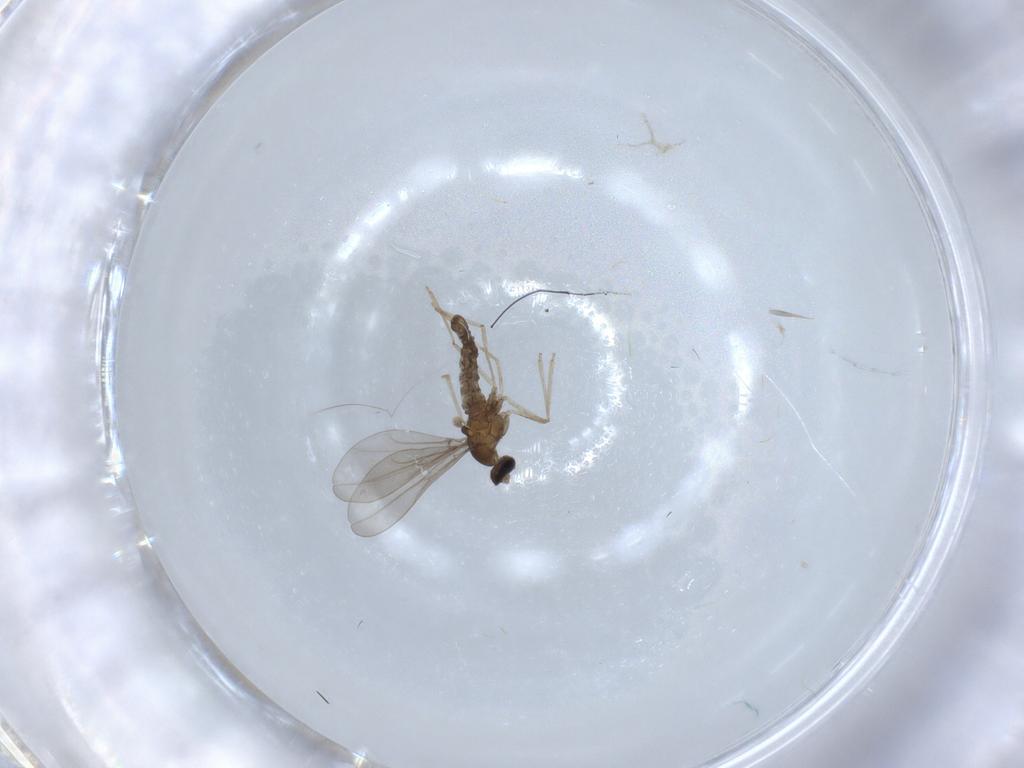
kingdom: Animalia
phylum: Arthropoda
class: Insecta
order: Diptera
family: Cecidomyiidae
